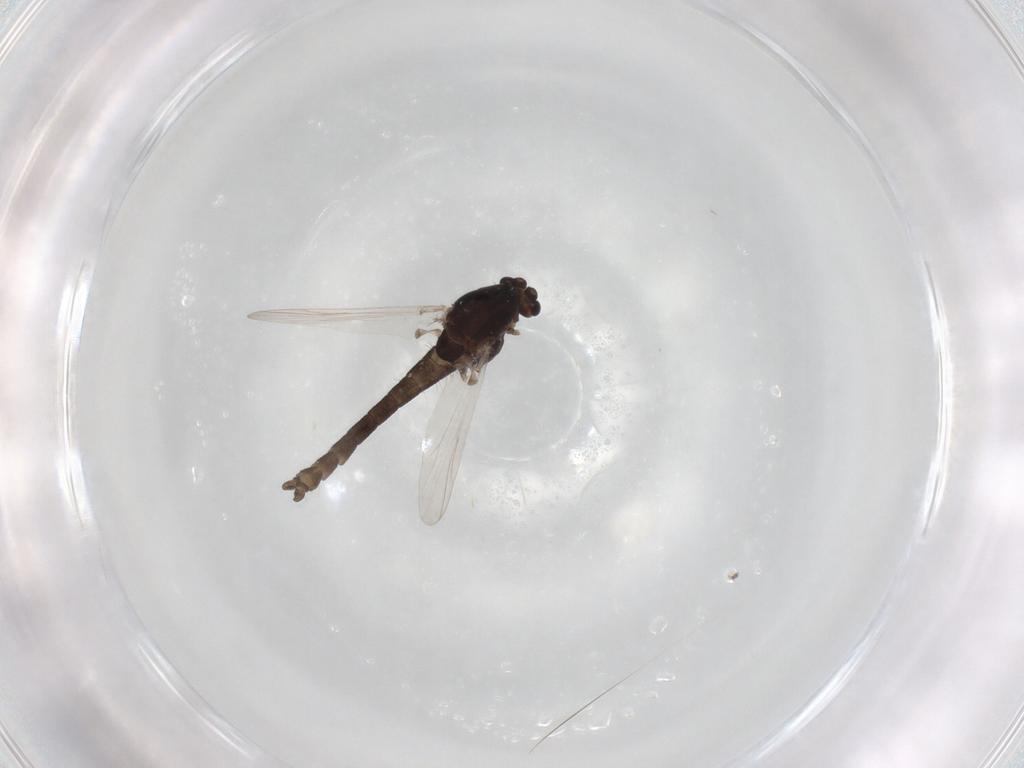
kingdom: Animalia
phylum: Arthropoda
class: Insecta
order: Diptera
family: Chironomidae
